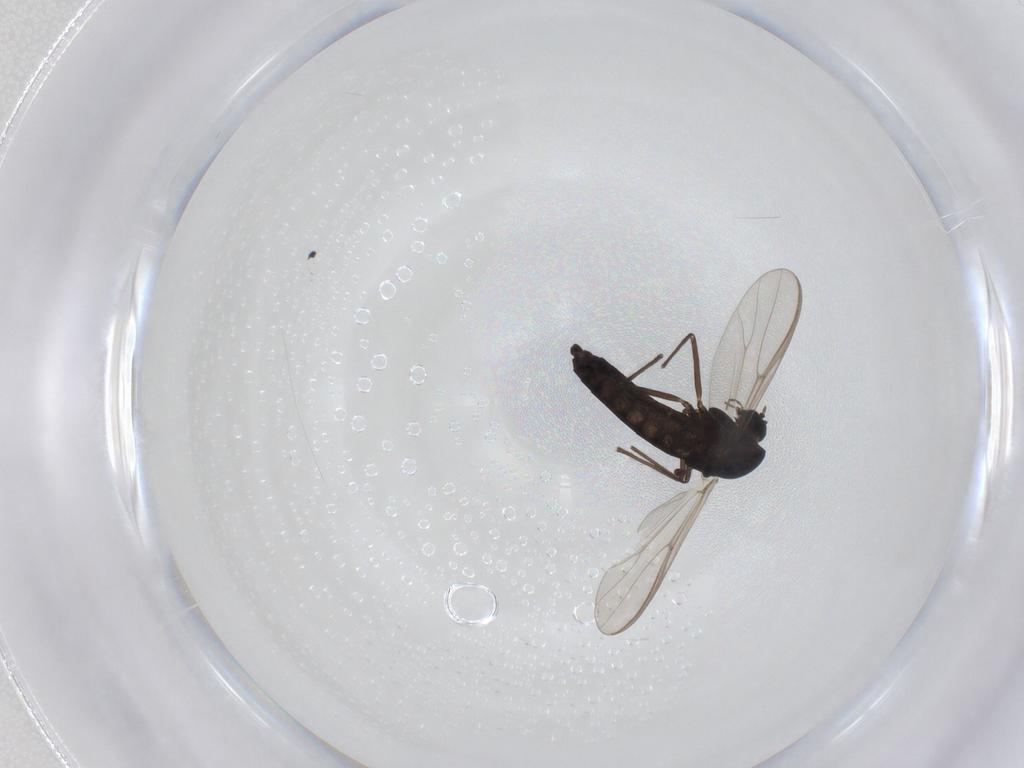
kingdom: Animalia
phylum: Arthropoda
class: Insecta
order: Diptera
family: Chironomidae
